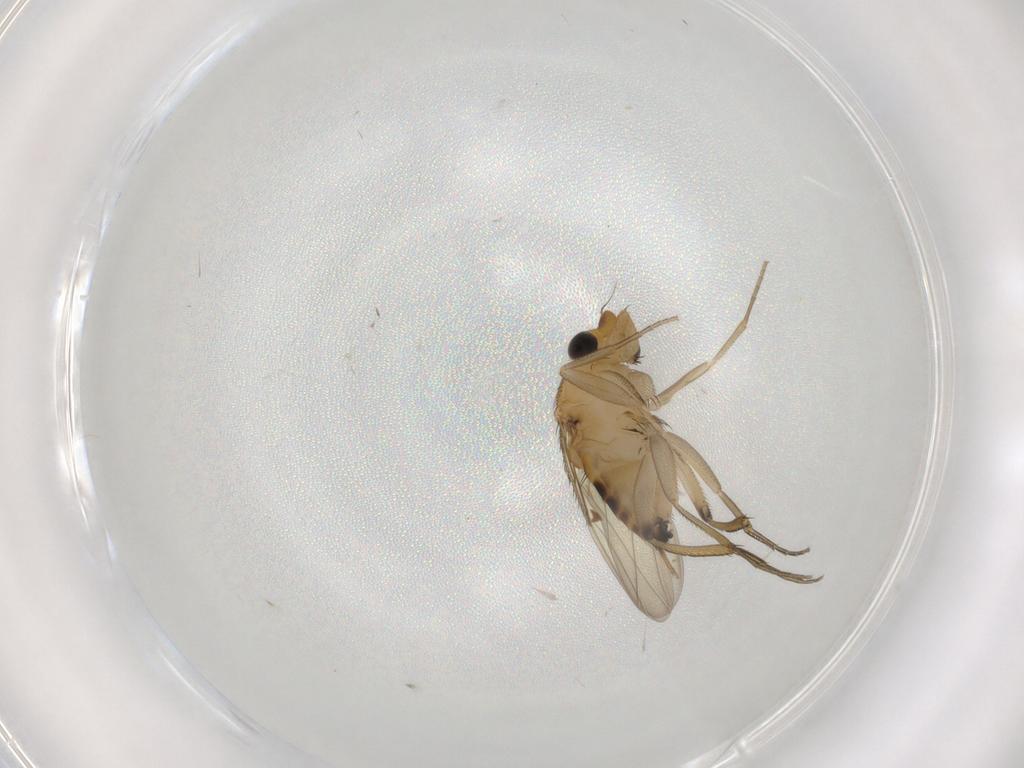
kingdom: Animalia
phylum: Arthropoda
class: Insecta
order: Diptera
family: Phoridae
